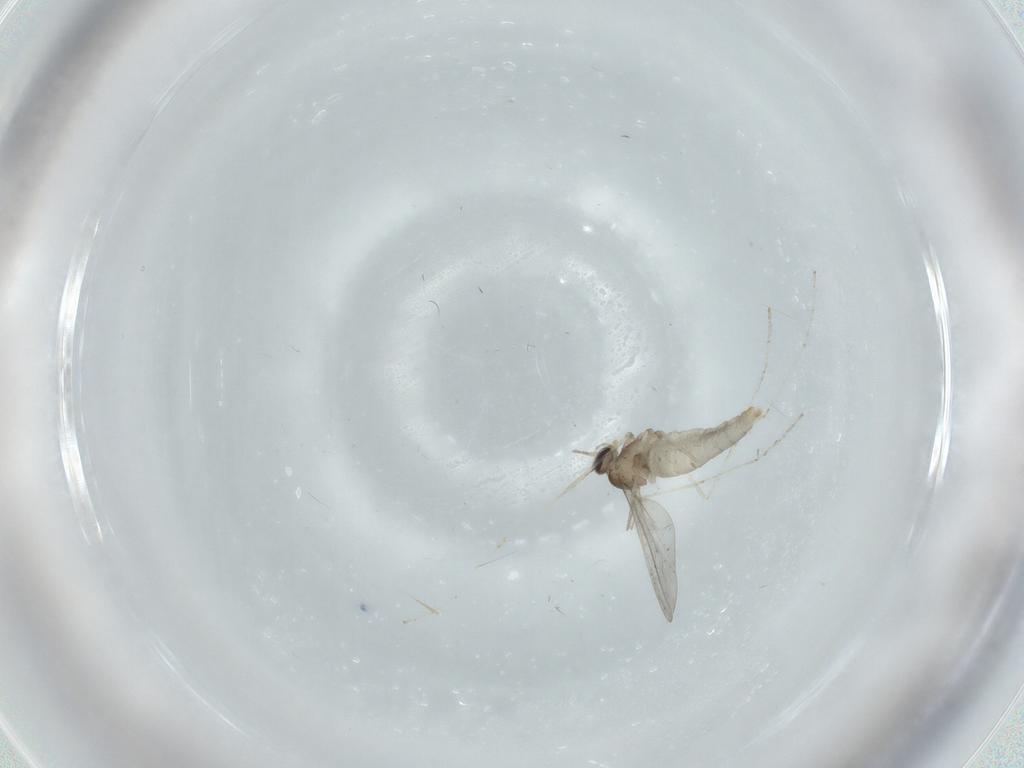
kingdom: Animalia
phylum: Arthropoda
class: Insecta
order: Diptera
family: Cecidomyiidae
